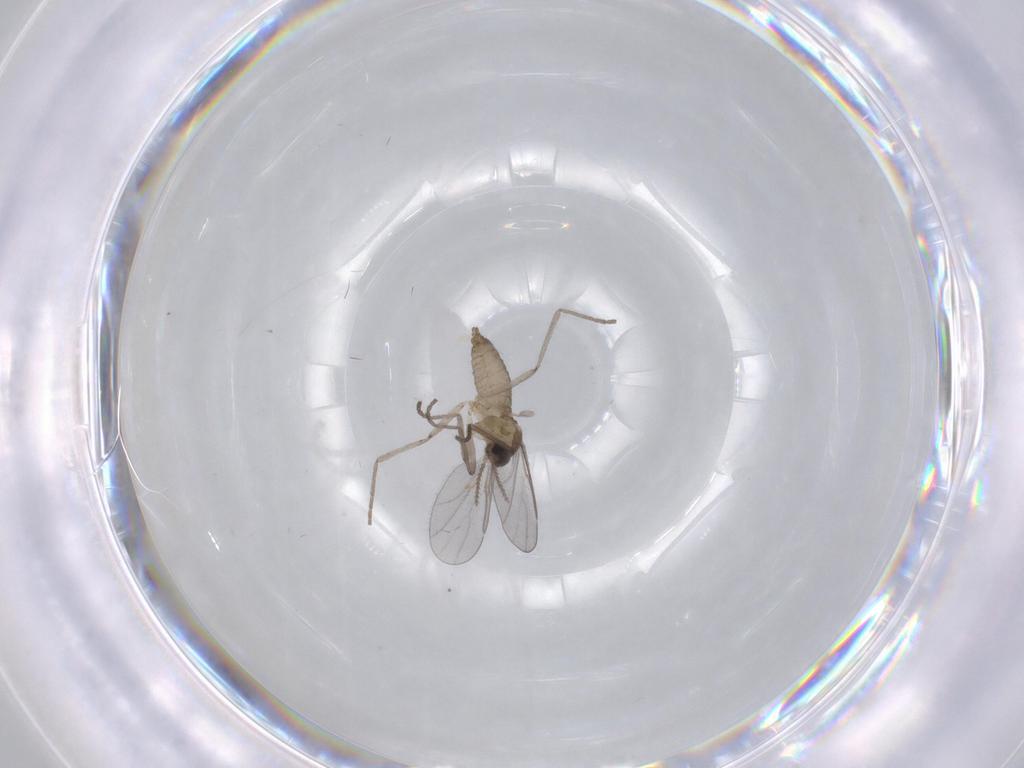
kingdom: Animalia
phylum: Arthropoda
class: Insecta
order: Diptera
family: Cecidomyiidae
